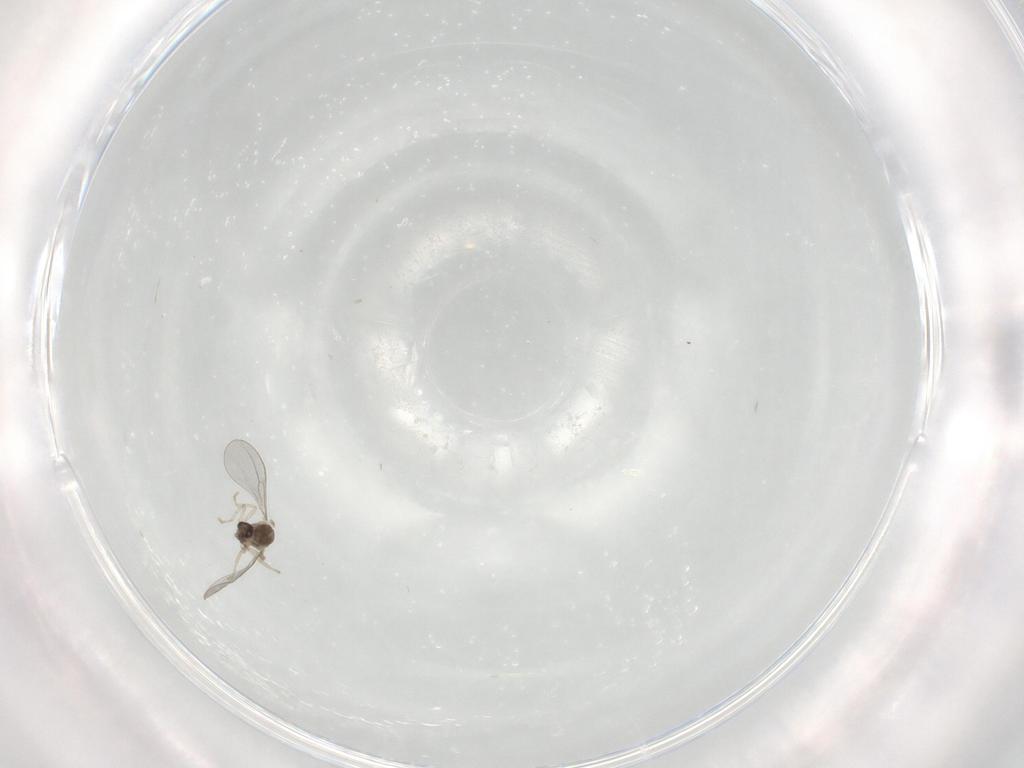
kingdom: Animalia
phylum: Arthropoda
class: Insecta
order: Diptera
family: Cecidomyiidae
